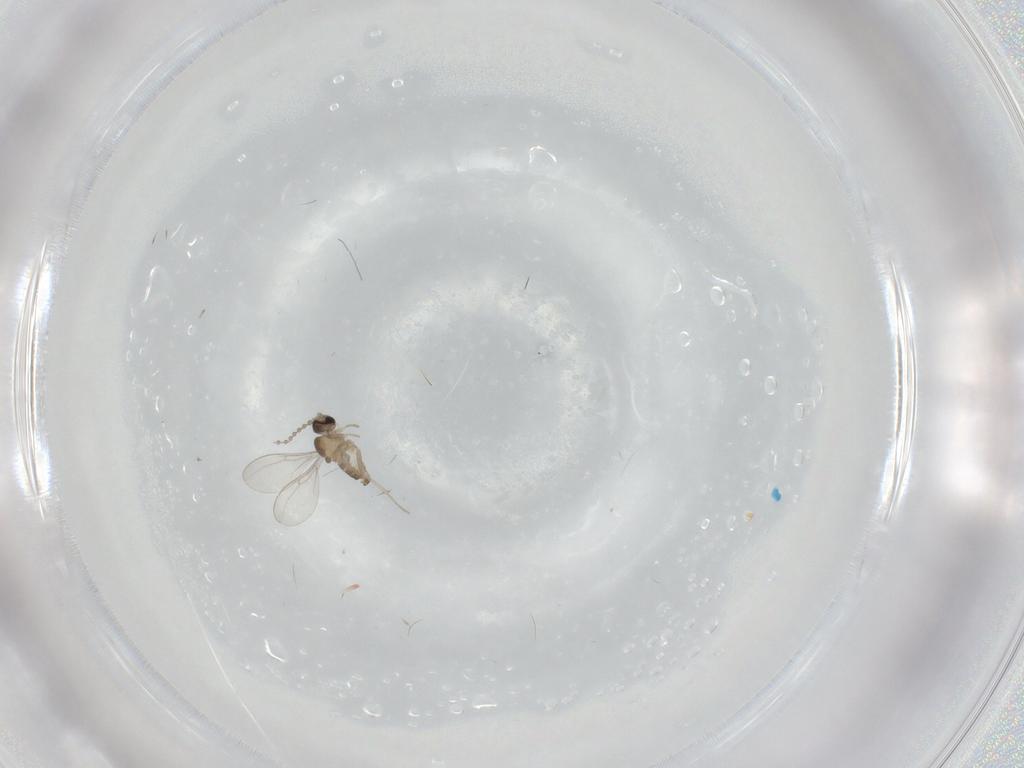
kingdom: Animalia
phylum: Arthropoda
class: Insecta
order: Diptera
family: Cecidomyiidae
